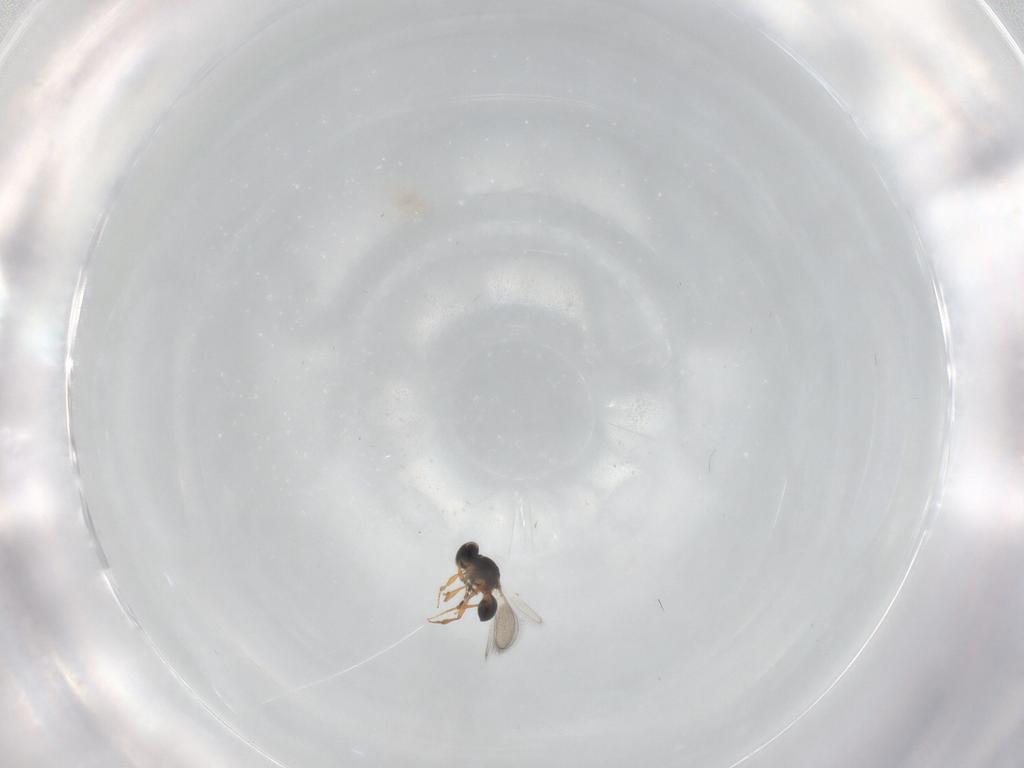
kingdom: Animalia
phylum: Arthropoda
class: Insecta
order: Hymenoptera
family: Platygastridae
